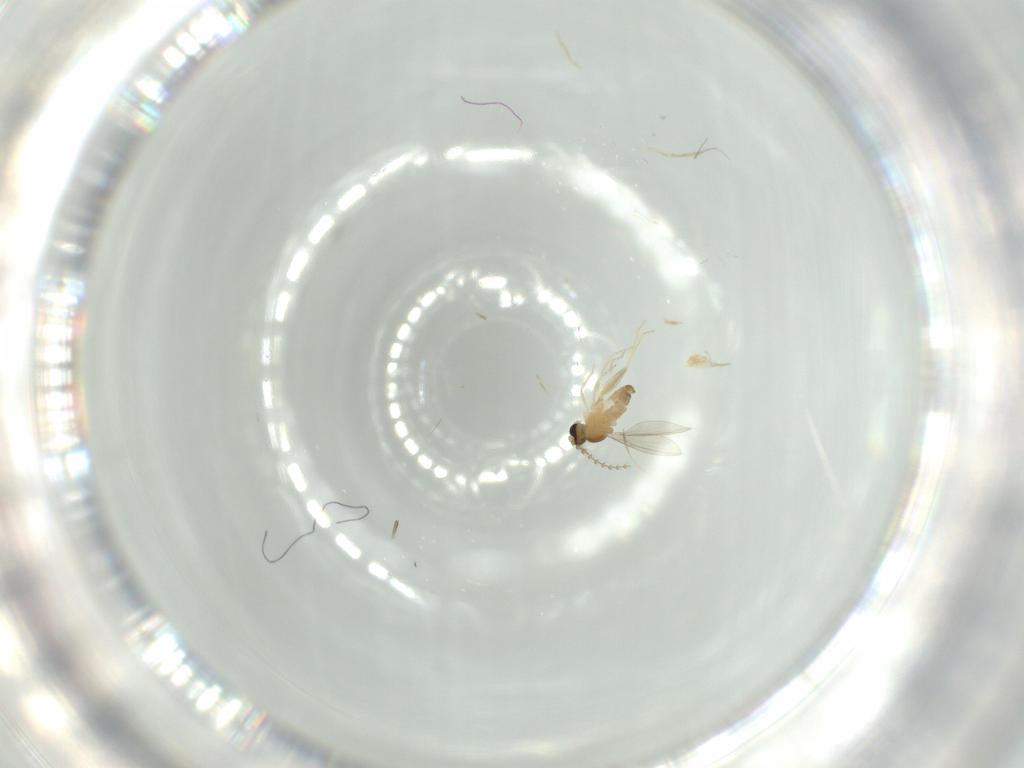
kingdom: Animalia
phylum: Arthropoda
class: Insecta
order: Diptera
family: Cecidomyiidae
